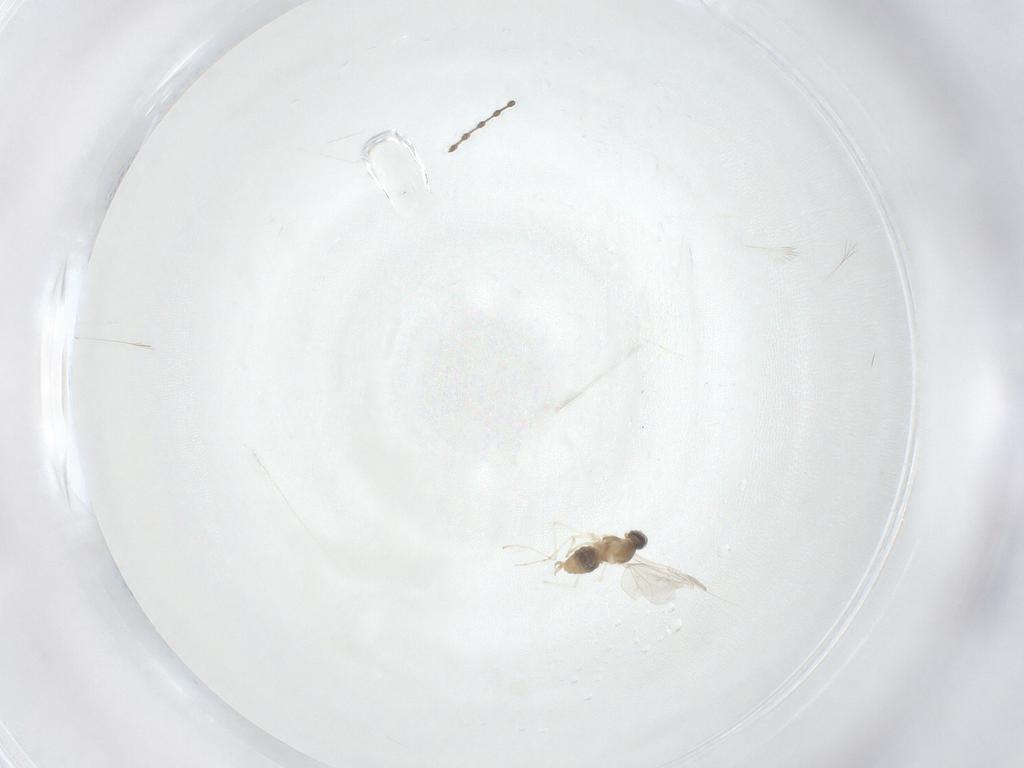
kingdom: Animalia
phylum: Arthropoda
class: Insecta
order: Diptera
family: Cecidomyiidae
